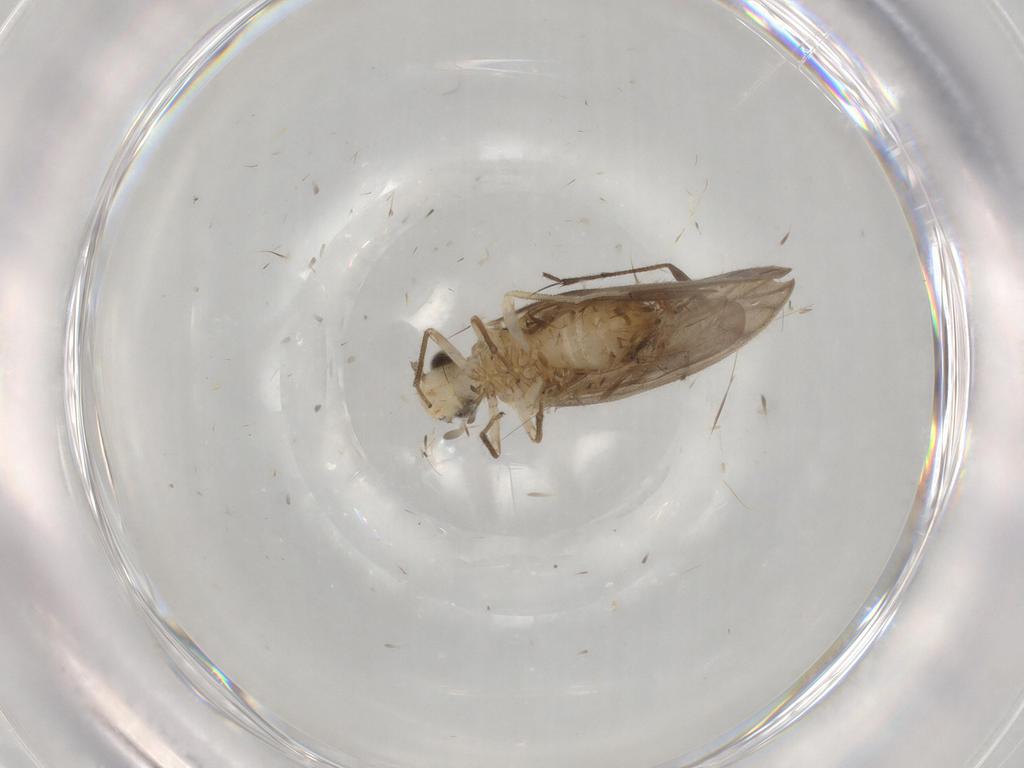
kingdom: Animalia
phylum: Arthropoda
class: Insecta
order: Psocodea
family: Caeciliusidae
